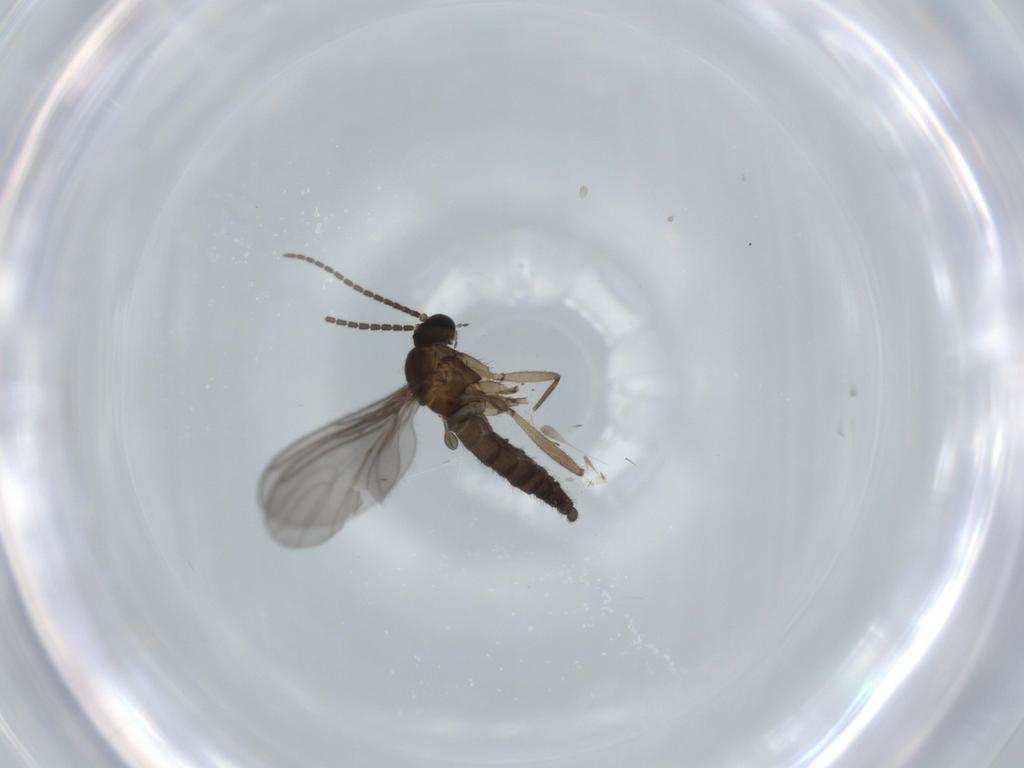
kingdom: Animalia
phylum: Arthropoda
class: Insecta
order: Diptera
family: Sciaridae
